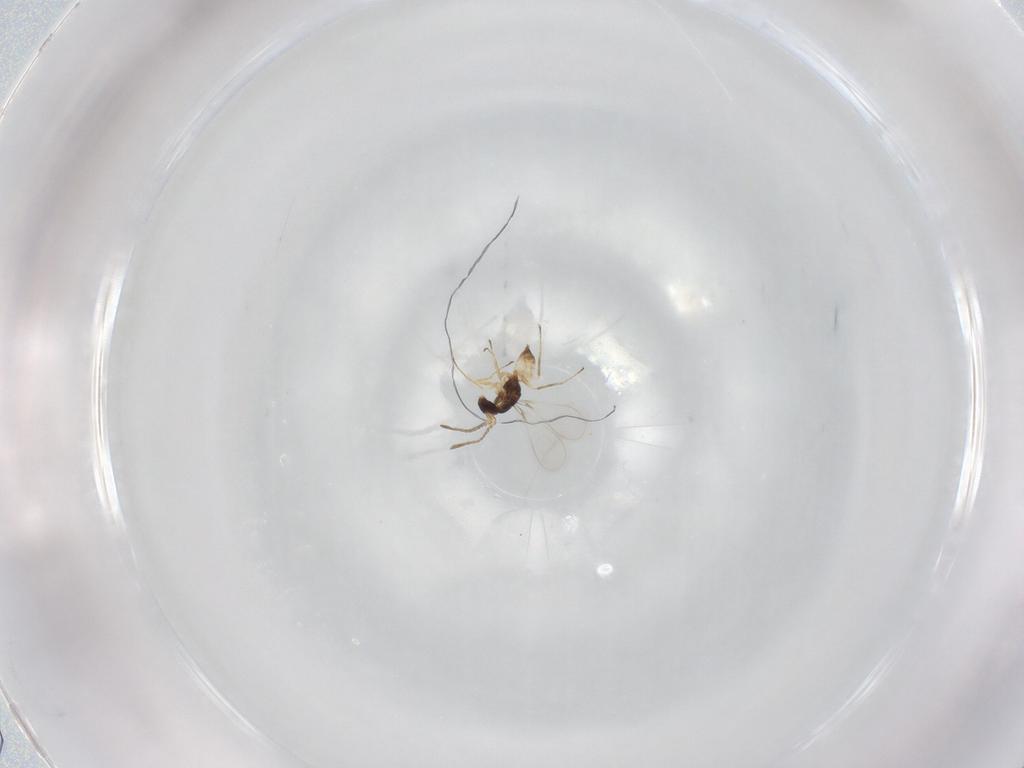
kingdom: Animalia
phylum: Arthropoda
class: Insecta
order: Hymenoptera
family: Mymaridae
